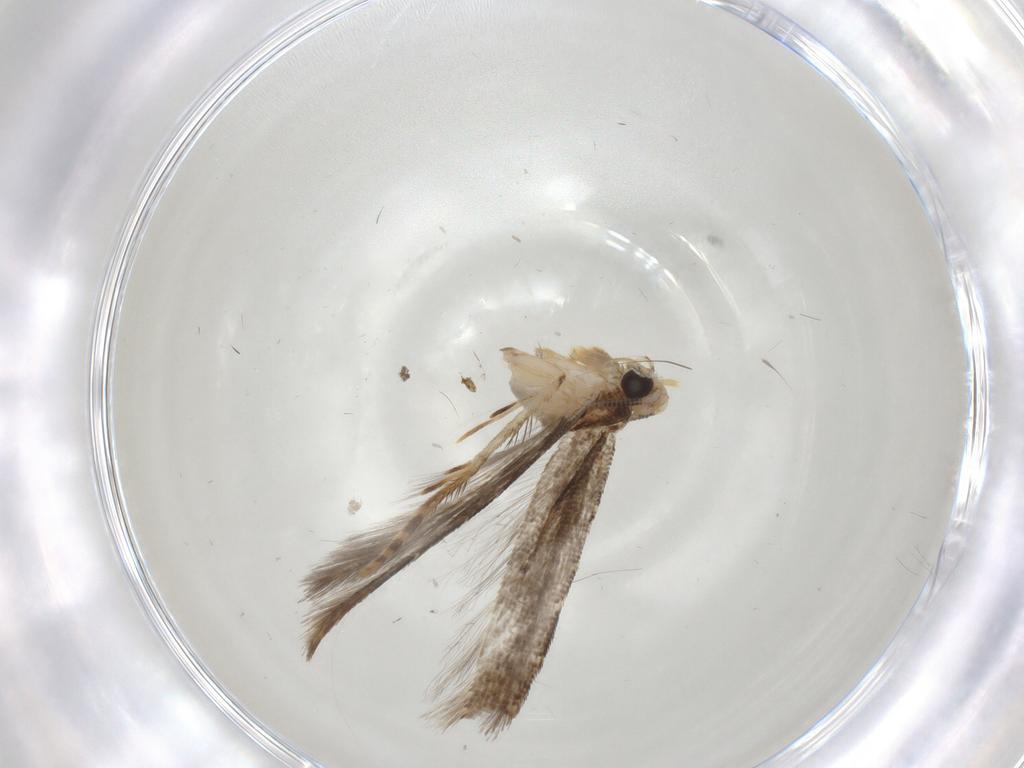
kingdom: Animalia
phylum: Arthropoda
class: Insecta
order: Lepidoptera
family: Tineidae
